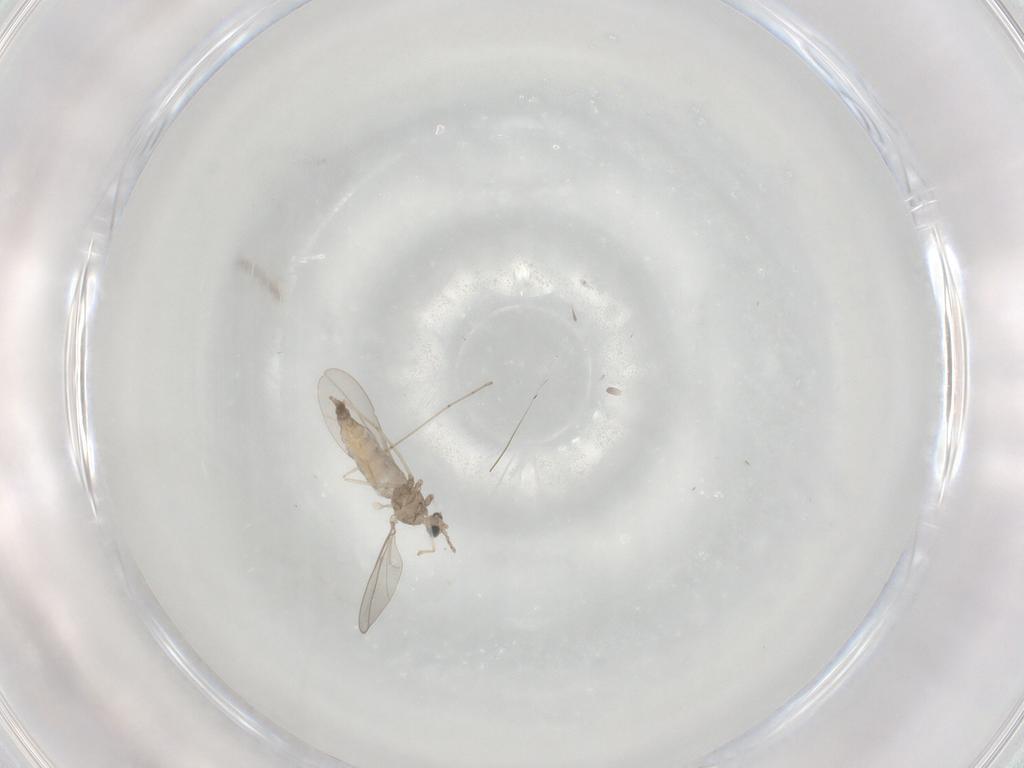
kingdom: Animalia
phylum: Arthropoda
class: Insecta
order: Diptera
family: Cecidomyiidae
